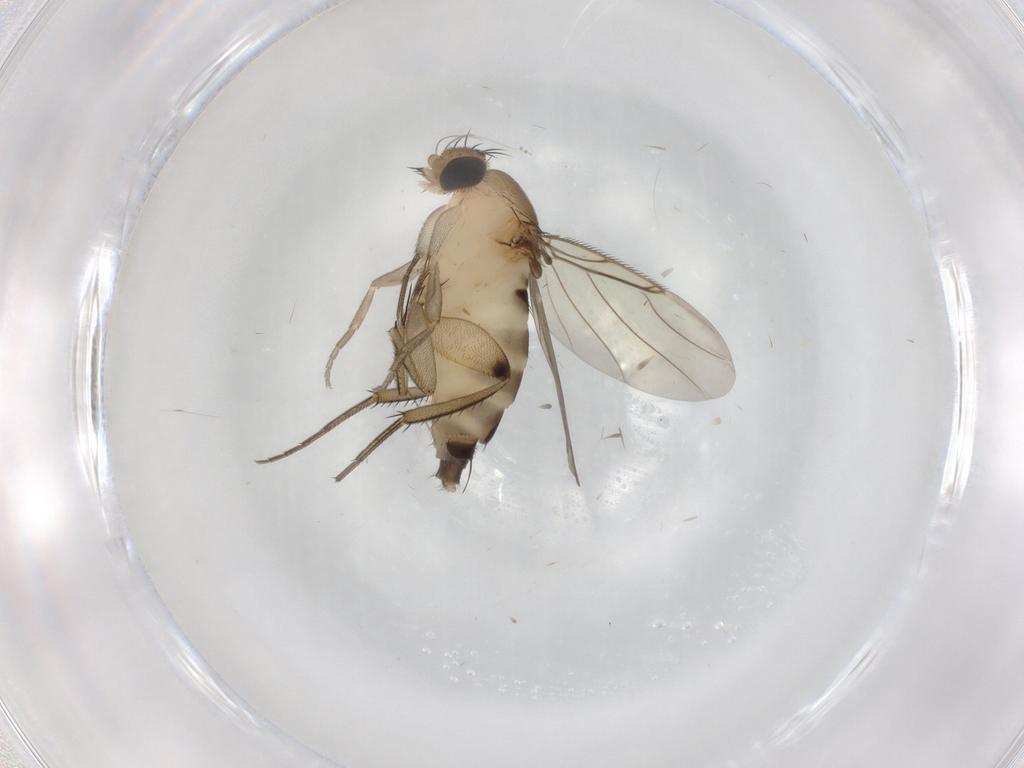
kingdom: Animalia
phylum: Arthropoda
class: Insecta
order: Diptera
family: Phoridae
